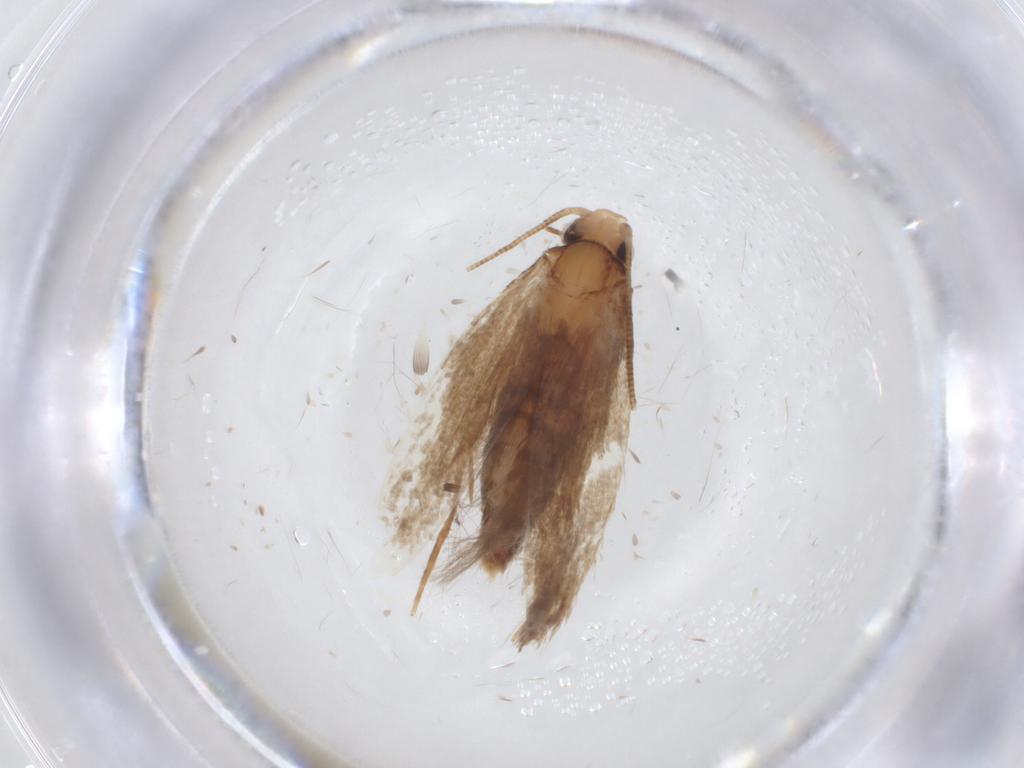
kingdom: Animalia
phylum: Arthropoda
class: Insecta
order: Lepidoptera
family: Tineidae
